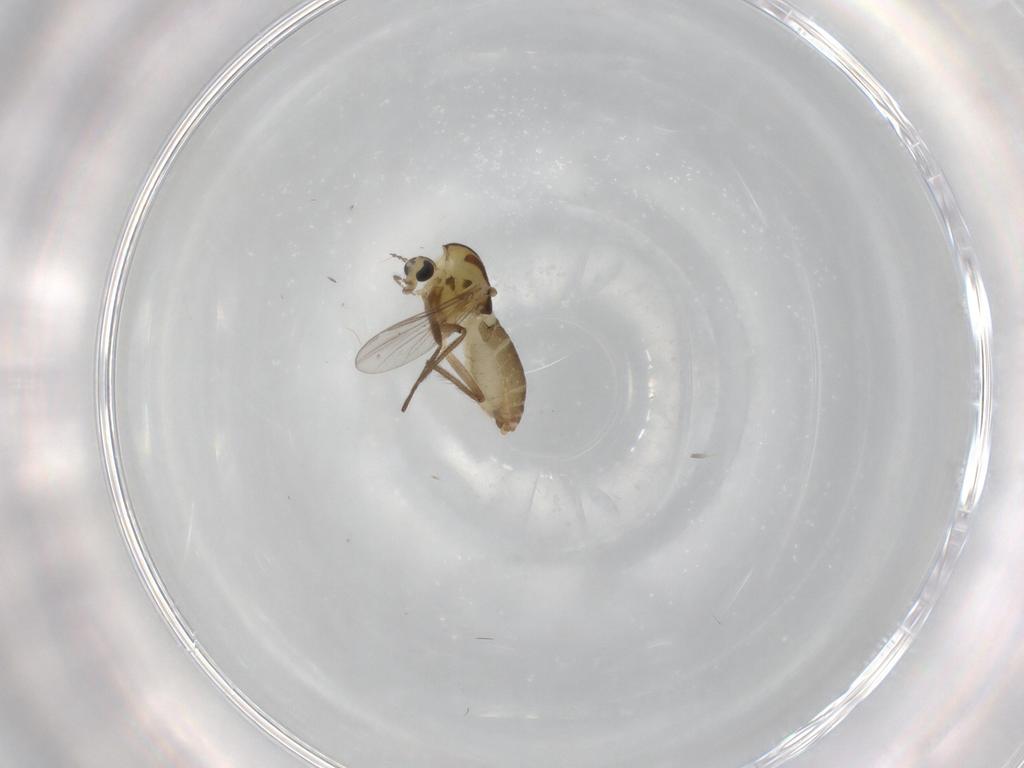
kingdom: Animalia
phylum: Arthropoda
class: Insecta
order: Diptera
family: Chironomidae
